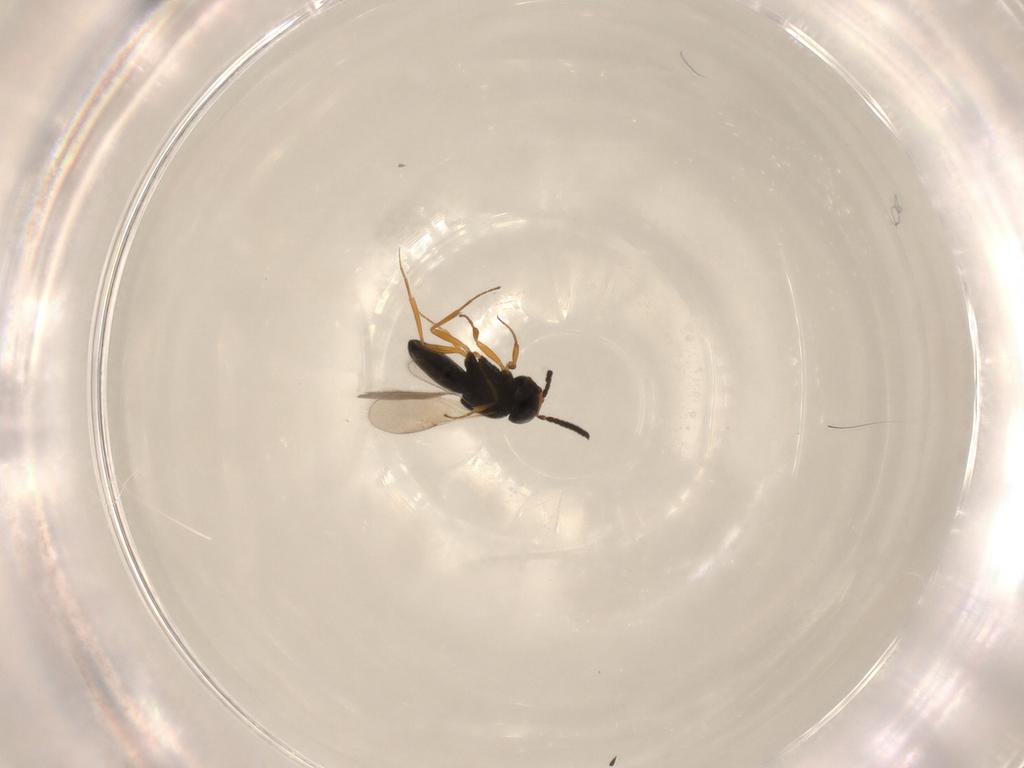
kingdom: Animalia
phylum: Arthropoda
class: Insecta
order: Hymenoptera
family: Scelionidae
